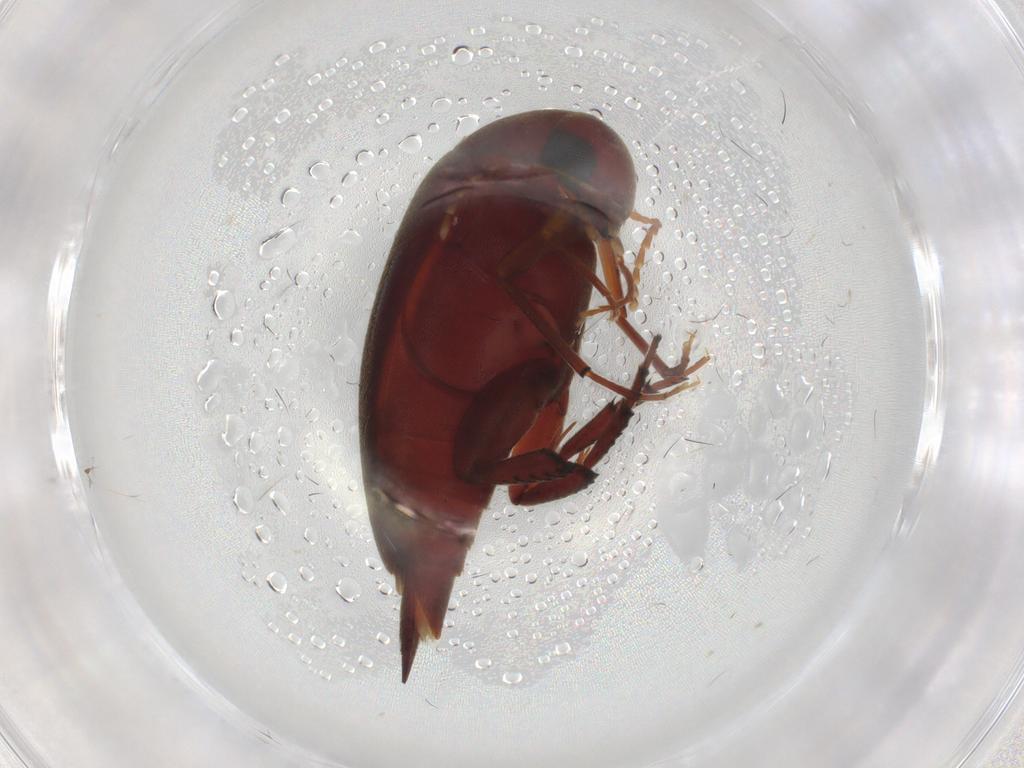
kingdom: Animalia
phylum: Arthropoda
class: Insecta
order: Coleoptera
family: Mordellidae
